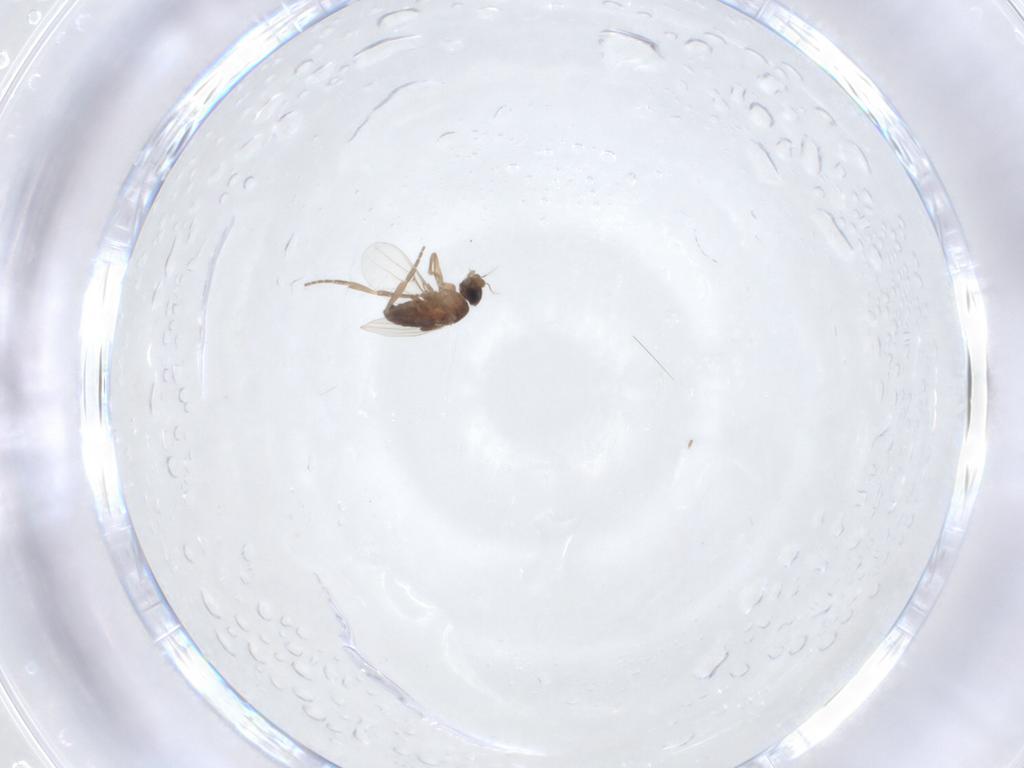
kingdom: Animalia
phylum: Arthropoda
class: Insecta
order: Diptera
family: Phoridae
